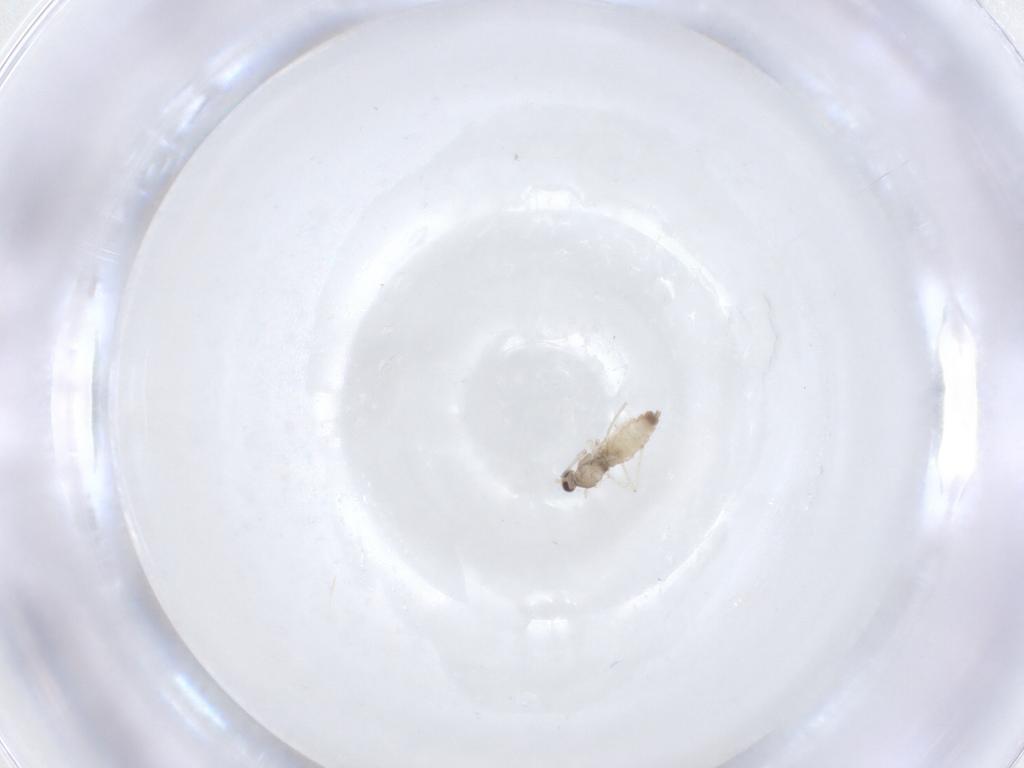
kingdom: Animalia
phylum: Arthropoda
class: Insecta
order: Diptera
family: Cecidomyiidae
